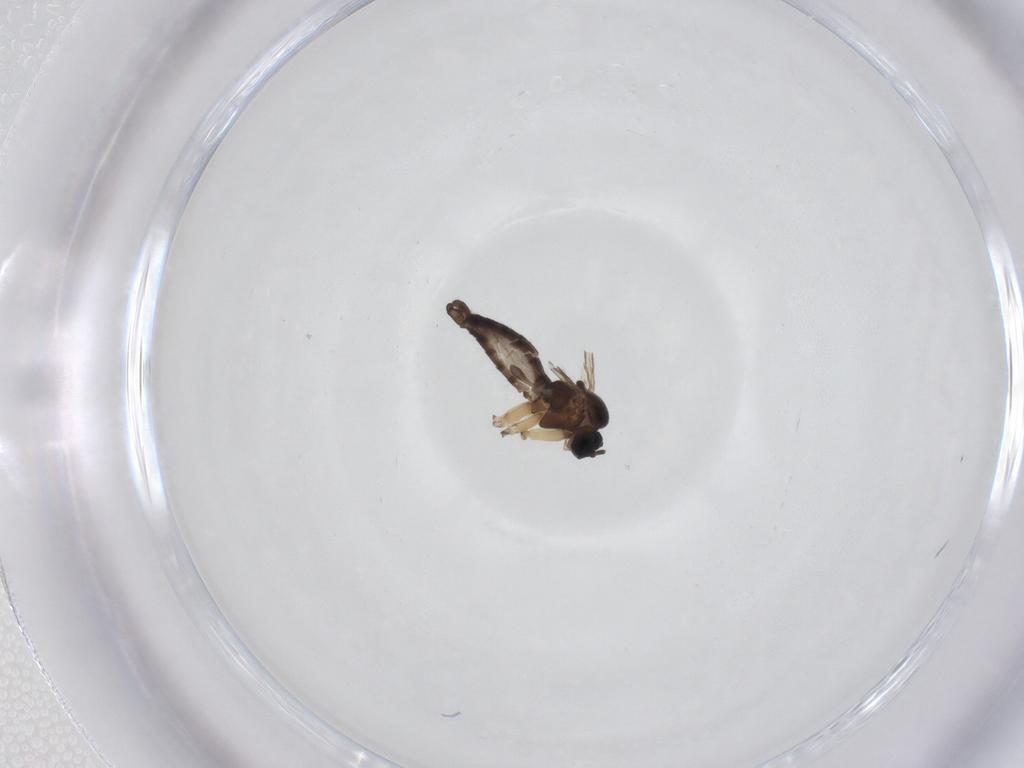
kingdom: Animalia
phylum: Arthropoda
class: Insecta
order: Diptera
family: Sciaridae
